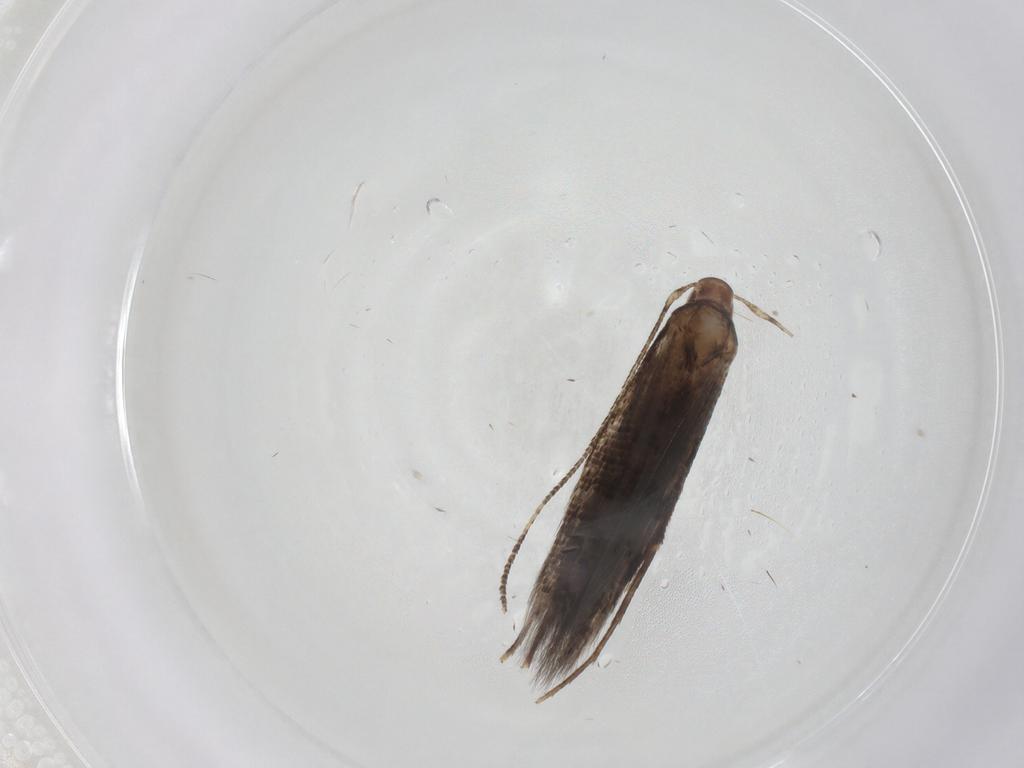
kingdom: Animalia
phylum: Arthropoda
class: Insecta
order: Lepidoptera
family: Cosmopterigidae
